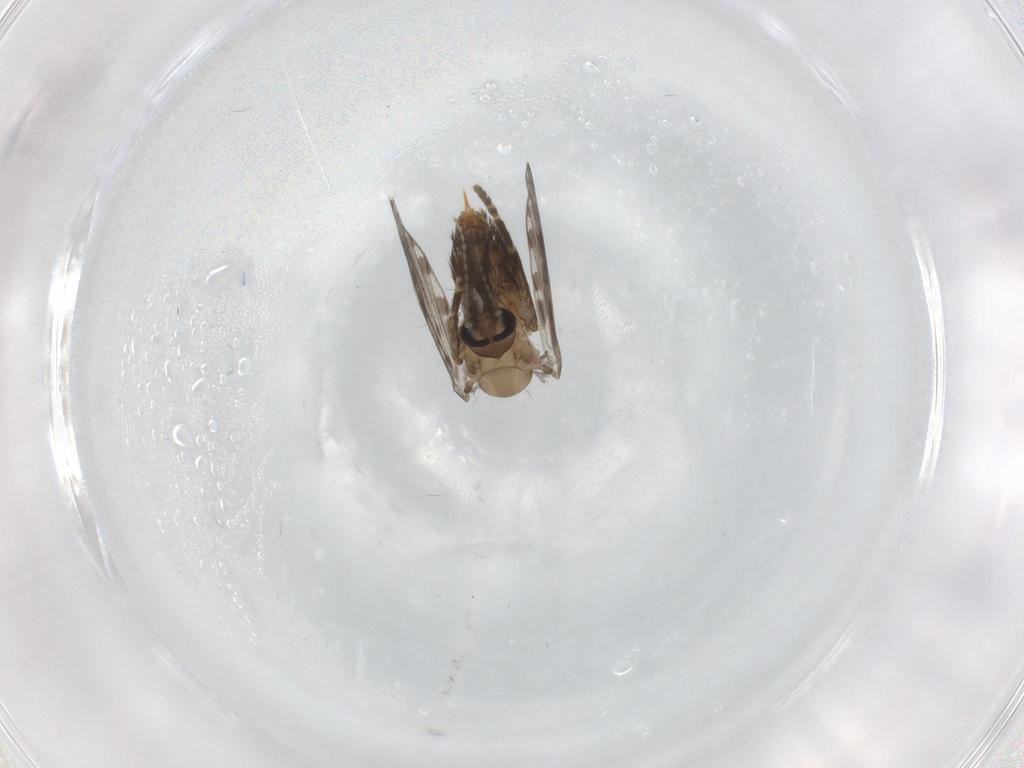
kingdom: Animalia
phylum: Arthropoda
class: Insecta
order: Diptera
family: Psychodidae
